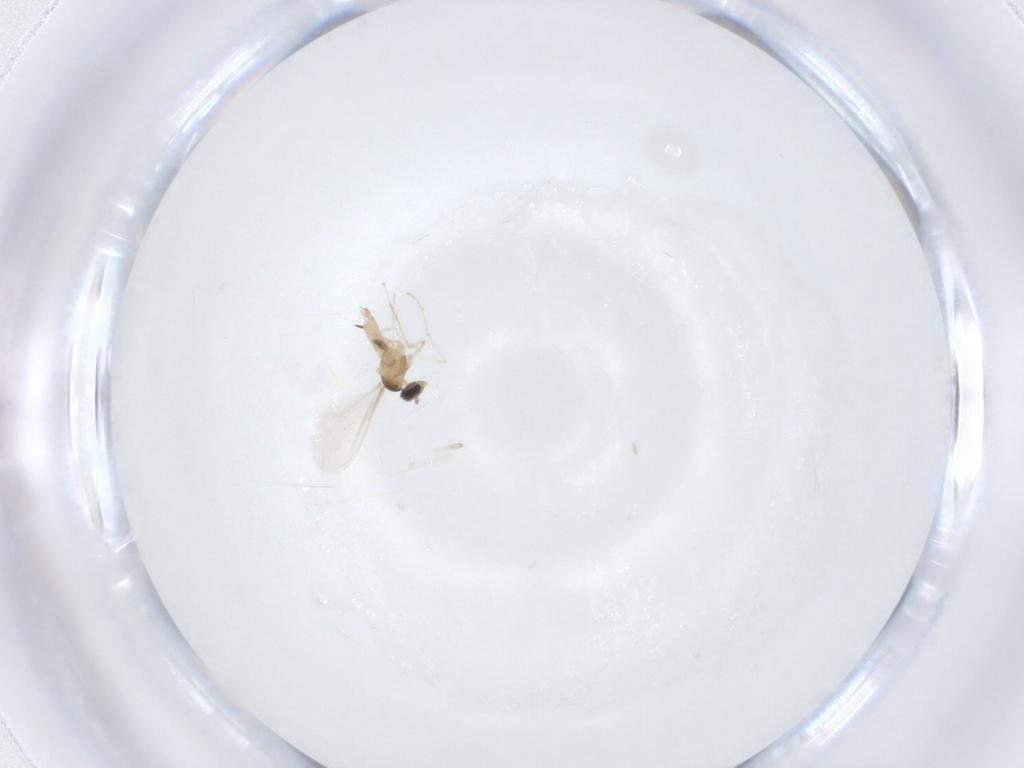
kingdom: Animalia
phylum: Arthropoda
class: Insecta
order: Diptera
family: Cecidomyiidae
